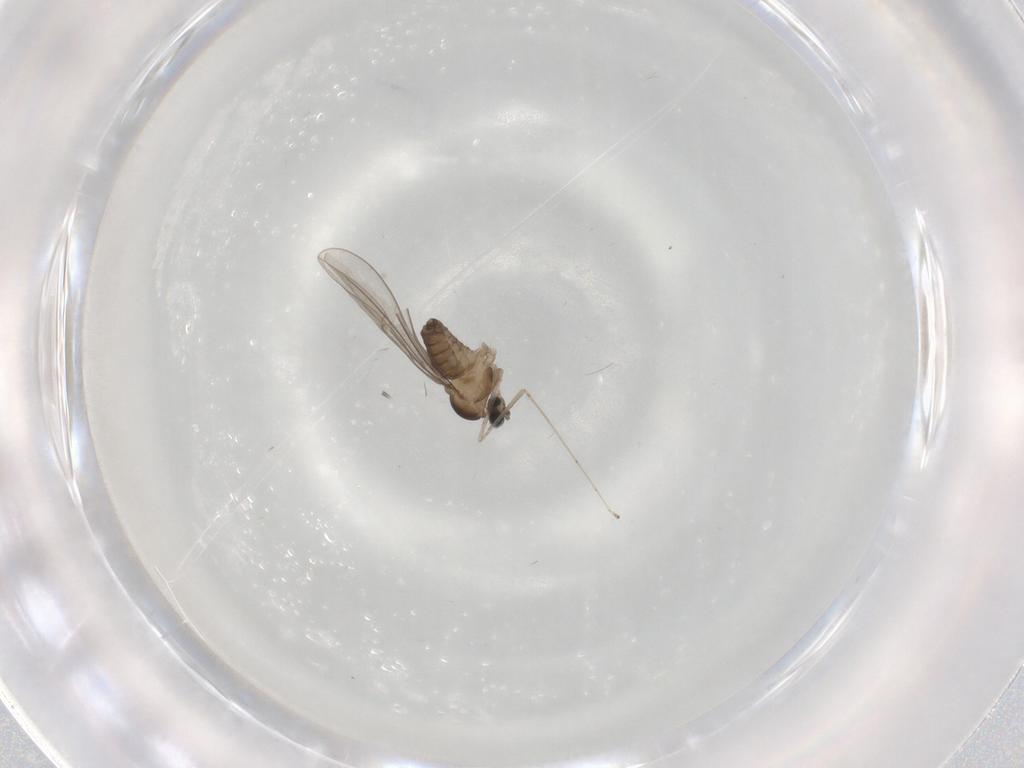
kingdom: Animalia
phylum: Arthropoda
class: Insecta
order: Diptera
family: Cecidomyiidae
